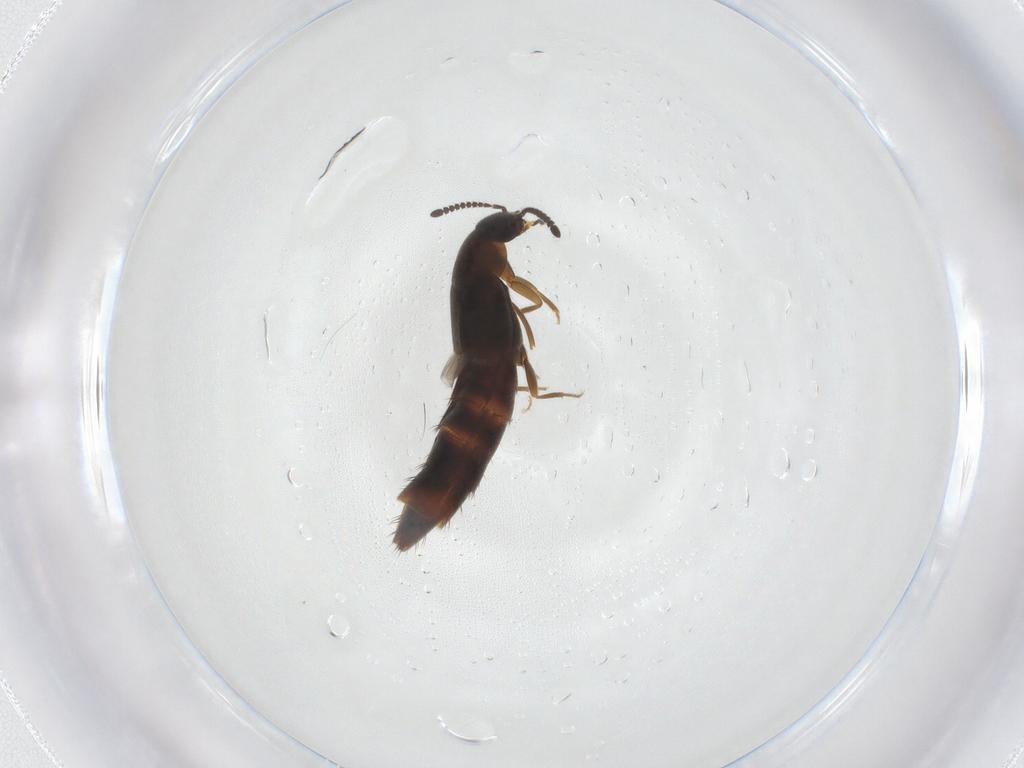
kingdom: Animalia
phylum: Arthropoda
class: Insecta
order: Coleoptera
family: Staphylinidae
